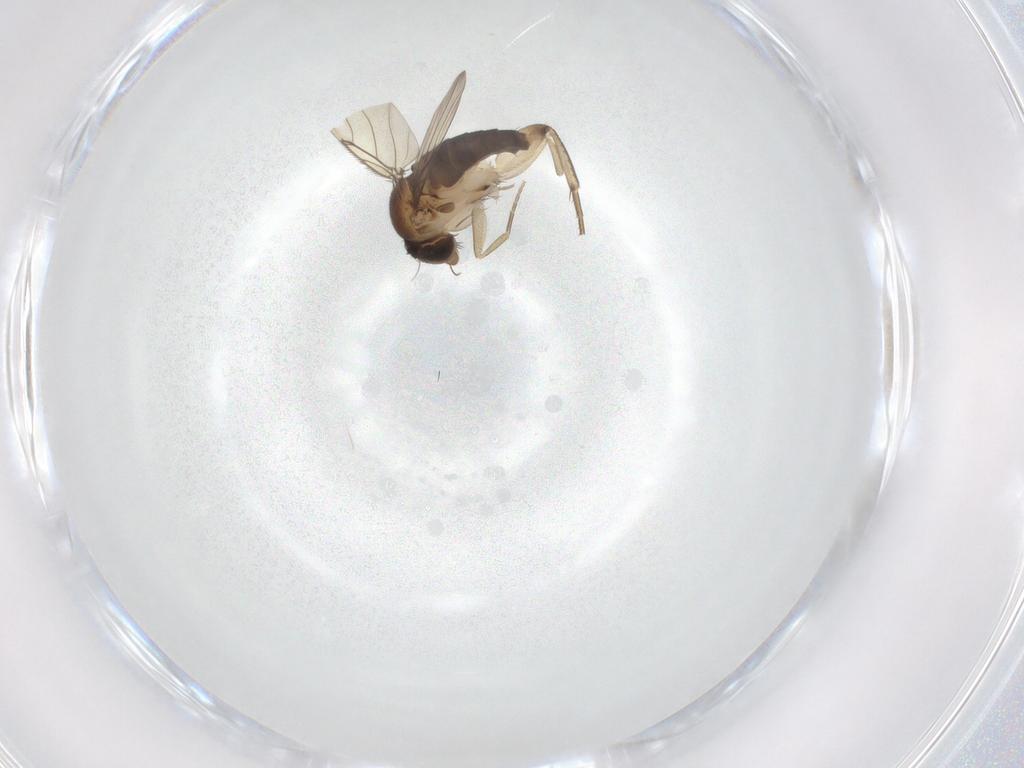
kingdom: Animalia
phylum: Arthropoda
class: Insecta
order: Diptera
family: Phoridae
